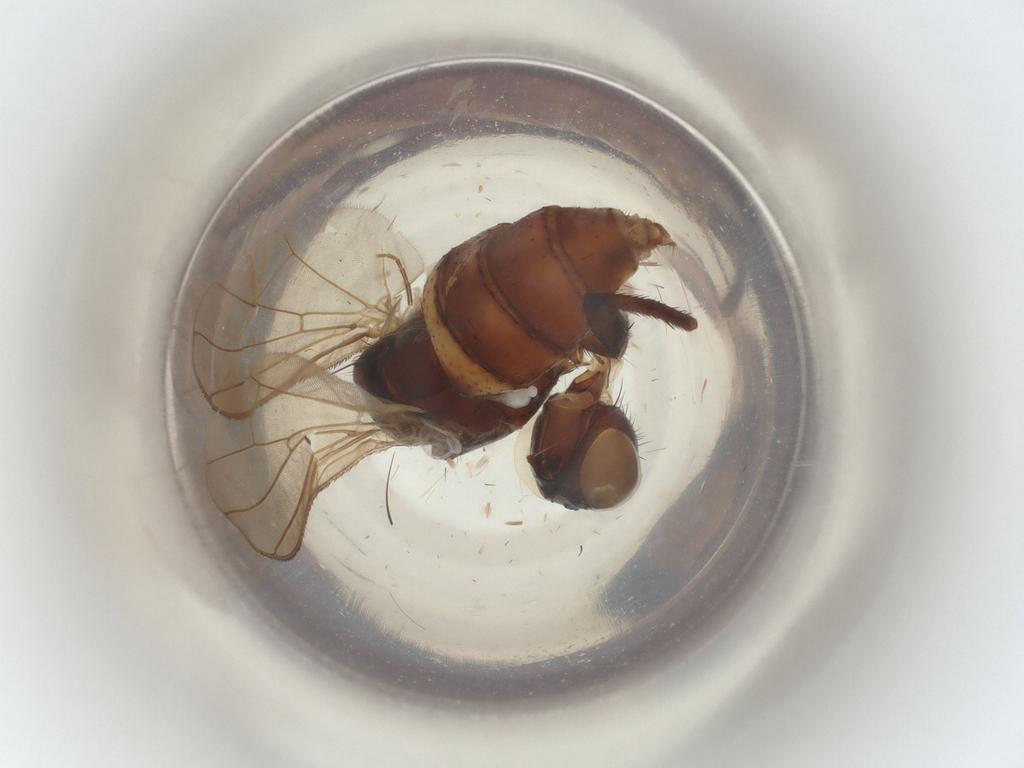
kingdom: Animalia
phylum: Arthropoda
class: Insecta
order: Diptera
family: Anthomyiidae
